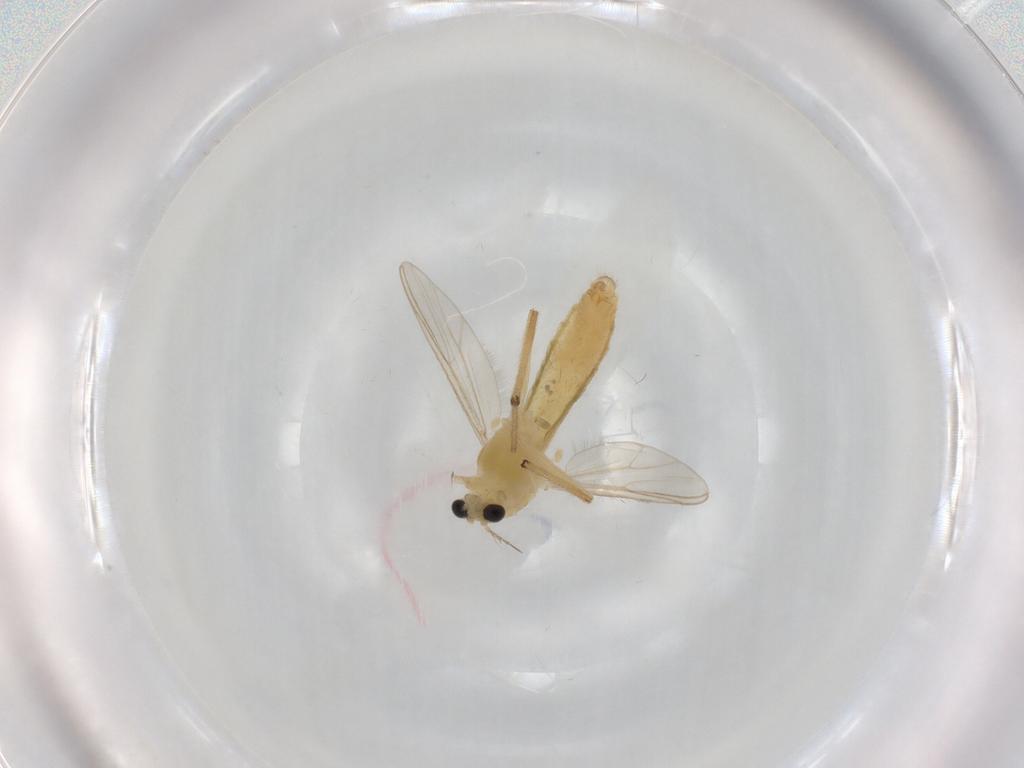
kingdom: Animalia
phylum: Arthropoda
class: Insecta
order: Diptera
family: Chironomidae
